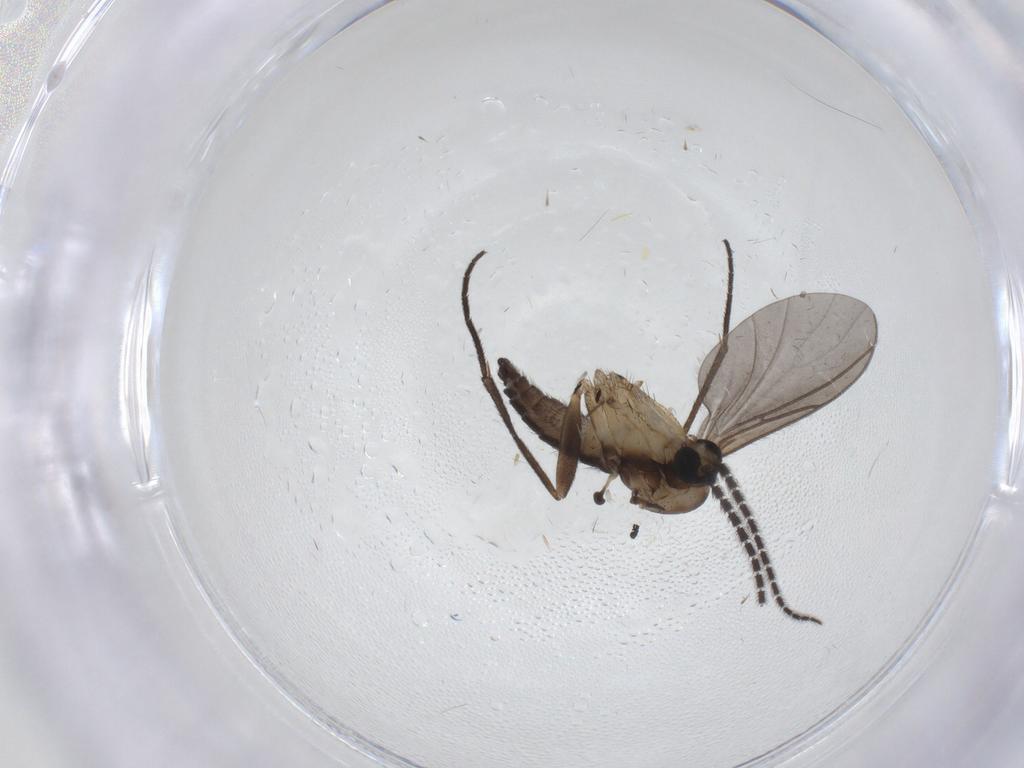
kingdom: Animalia
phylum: Arthropoda
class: Insecta
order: Diptera
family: Sciaridae
